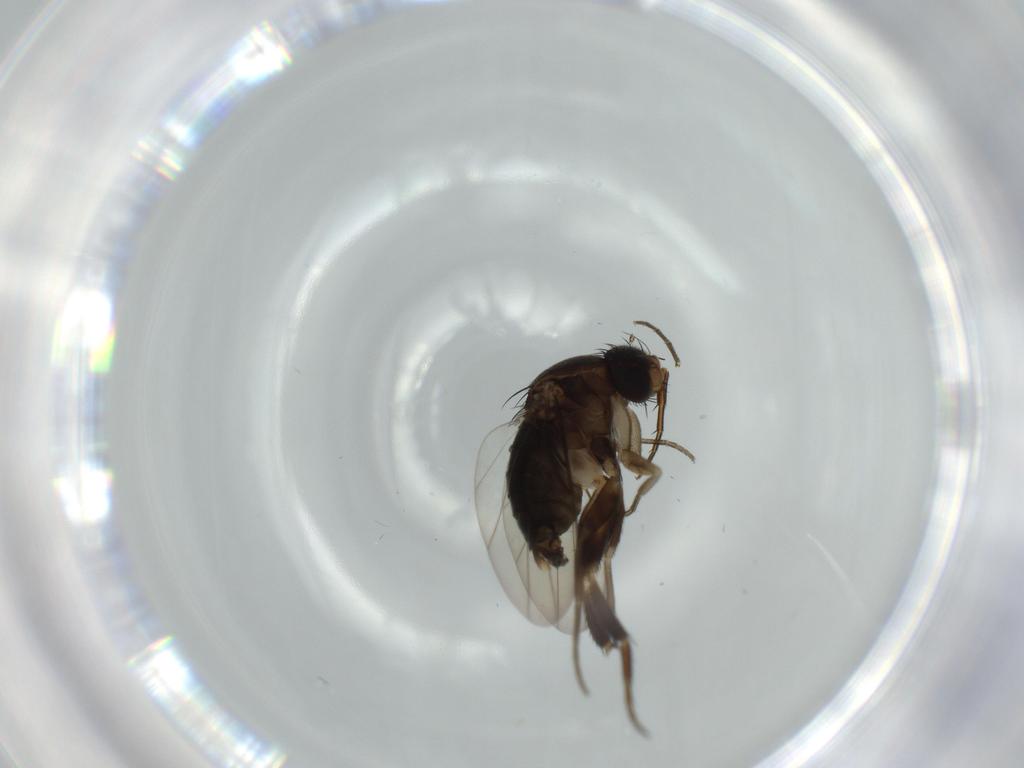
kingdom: Animalia
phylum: Arthropoda
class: Insecta
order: Diptera
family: Phoridae
